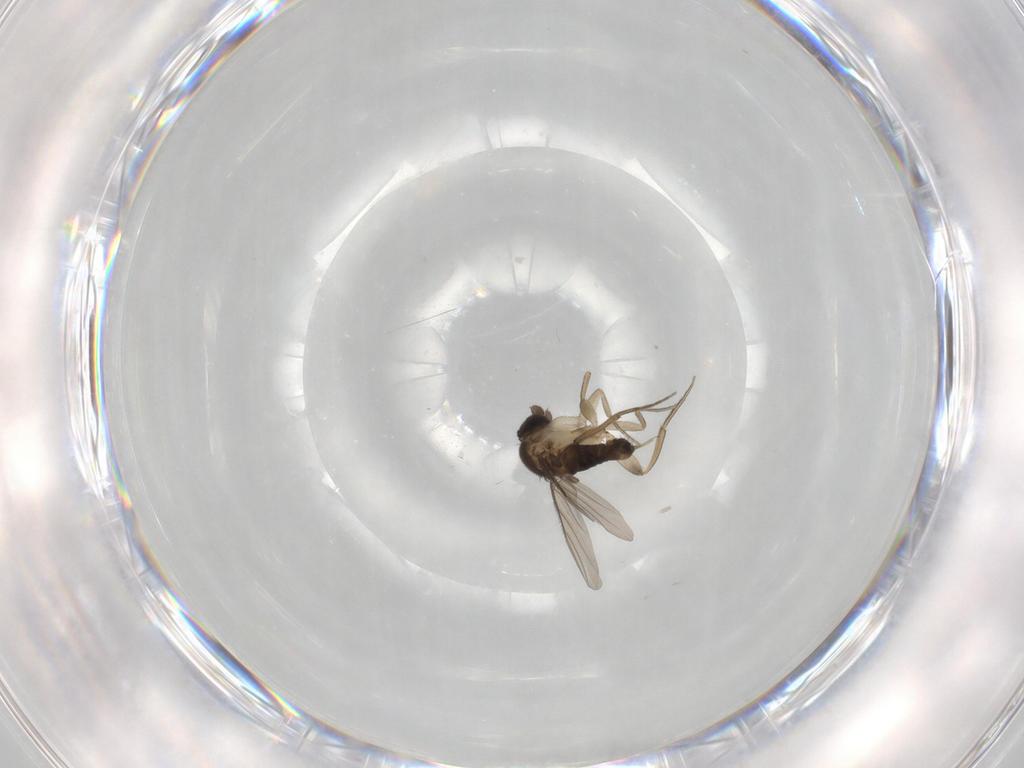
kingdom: Animalia
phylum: Arthropoda
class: Insecta
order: Diptera
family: Phoridae
